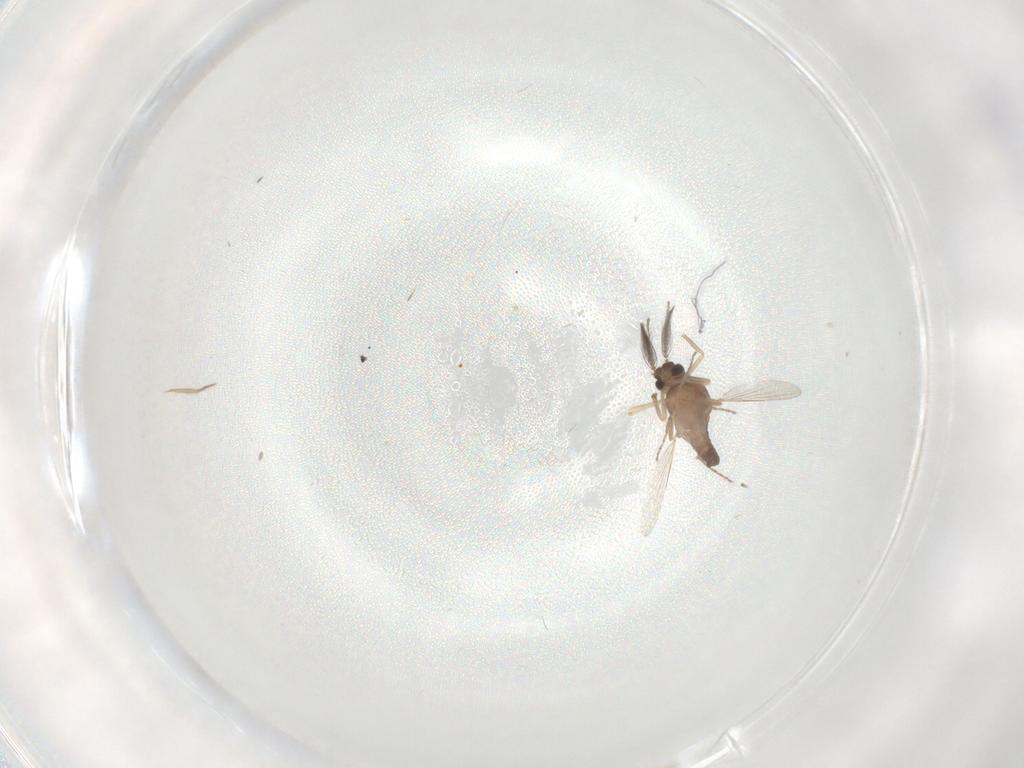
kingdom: Animalia
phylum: Arthropoda
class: Insecta
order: Diptera
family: Ceratopogonidae
